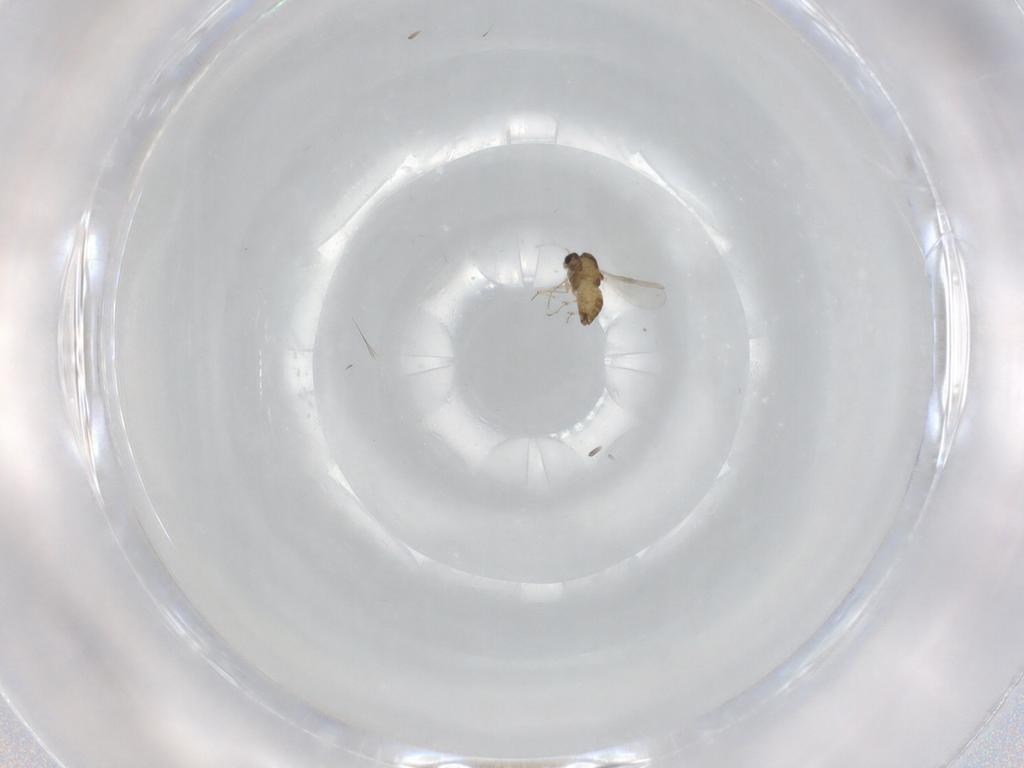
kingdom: Animalia
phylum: Arthropoda
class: Insecta
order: Diptera
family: Chironomidae
